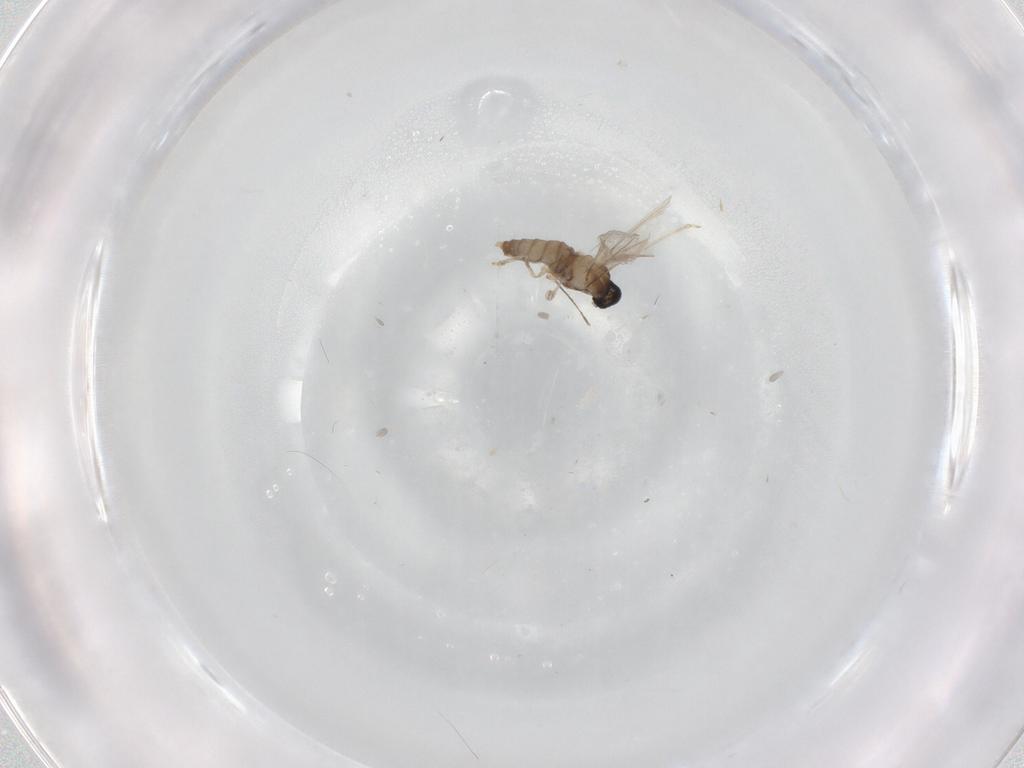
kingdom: Animalia
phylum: Arthropoda
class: Insecta
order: Diptera
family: Cecidomyiidae
